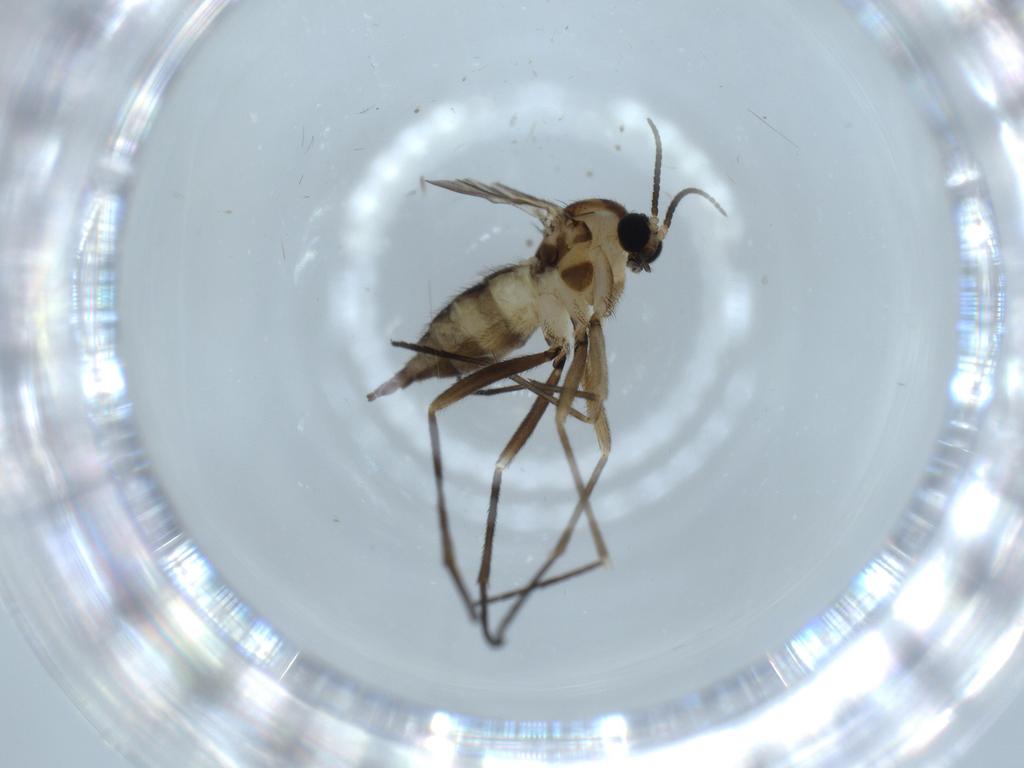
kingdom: Animalia
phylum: Arthropoda
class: Insecta
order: Diptera
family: Sciaridae
